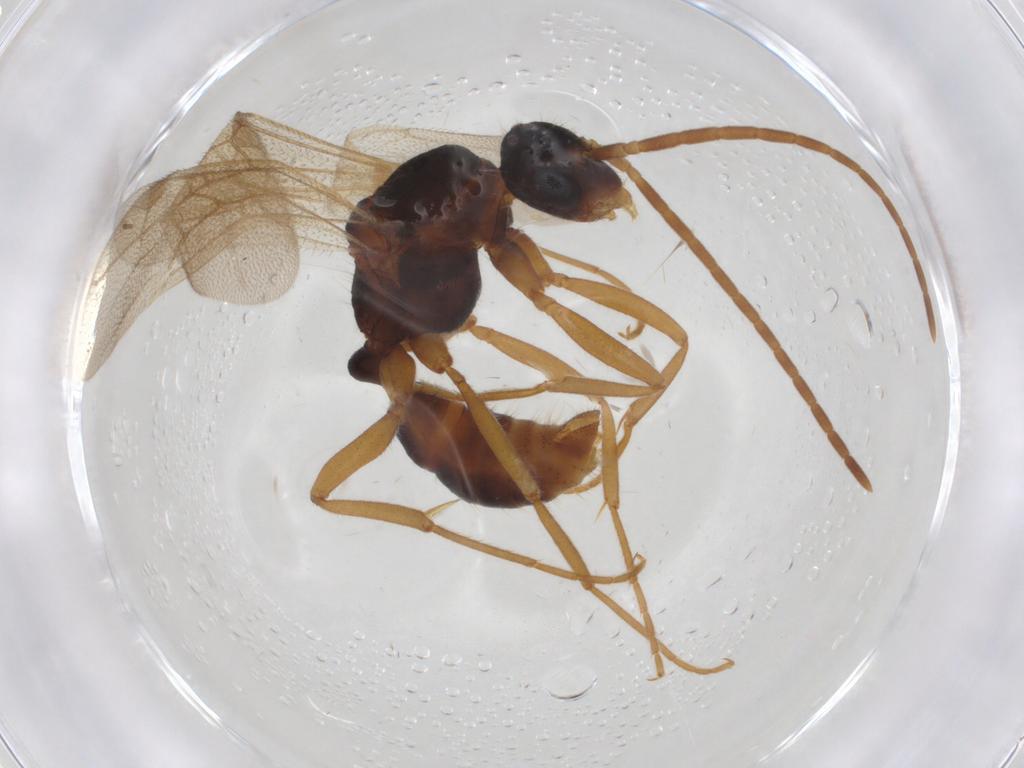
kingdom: Animalia
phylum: Arthropoda
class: Insecta
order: Hymenoptera
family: Formicidae
